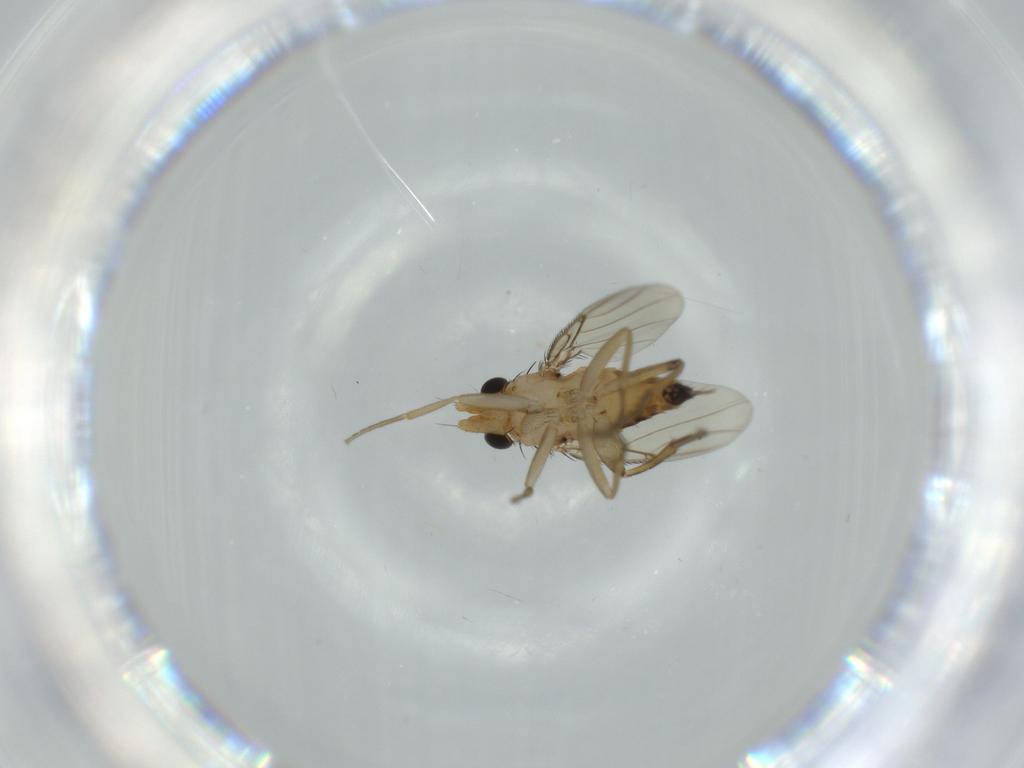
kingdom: Animalia
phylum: Arthropoda
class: Insecta
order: Diptera
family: Phoridae
